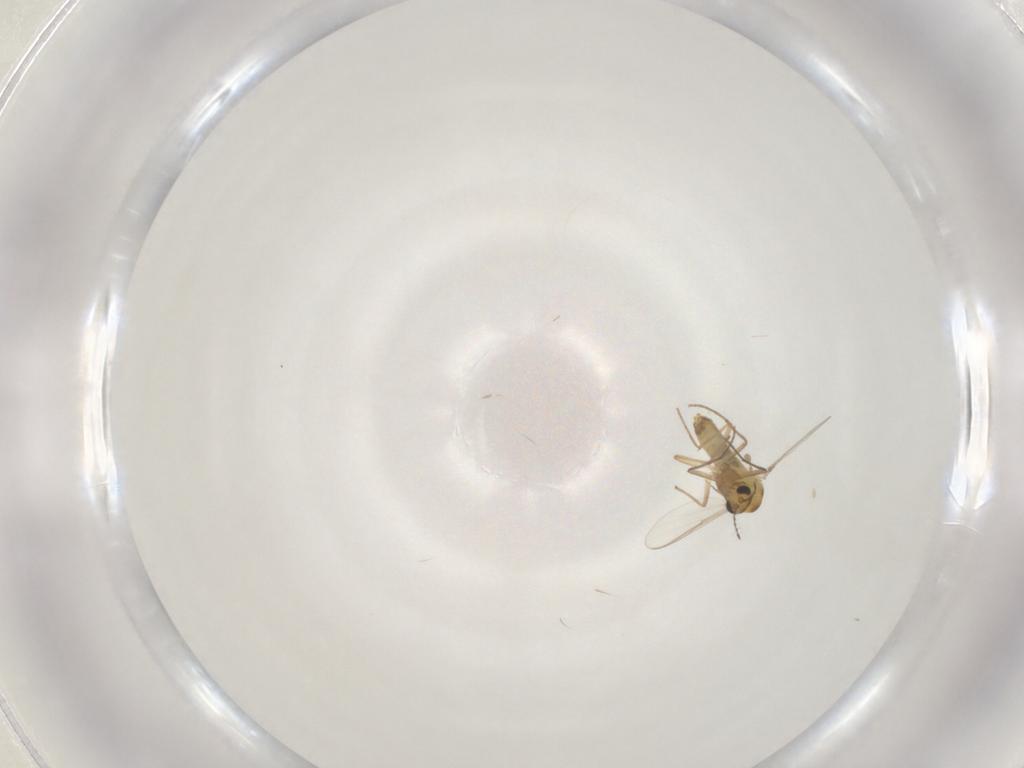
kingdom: Animalia
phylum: Arthropoda
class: Insecta
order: Diptera
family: Chironomidae
